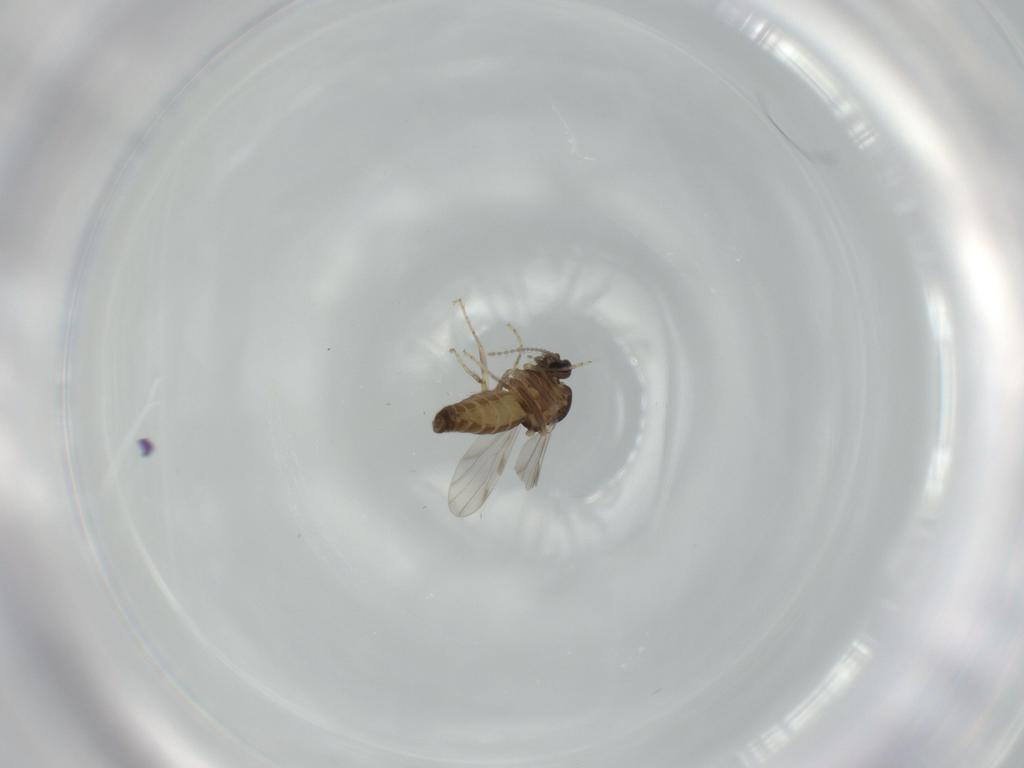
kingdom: Animalia
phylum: Arthropoda
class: Insecta
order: Diptera
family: Ceratopogonidae
